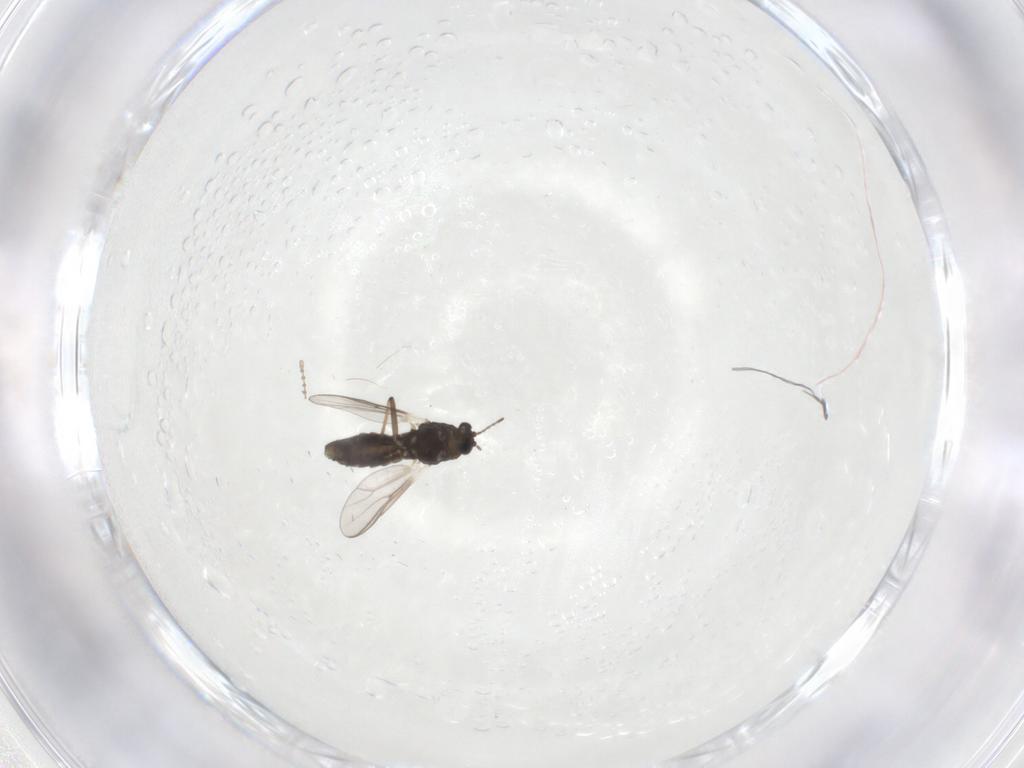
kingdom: Animalia
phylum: Arthropoda
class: Insecta
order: Diptera
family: Chironomidae
